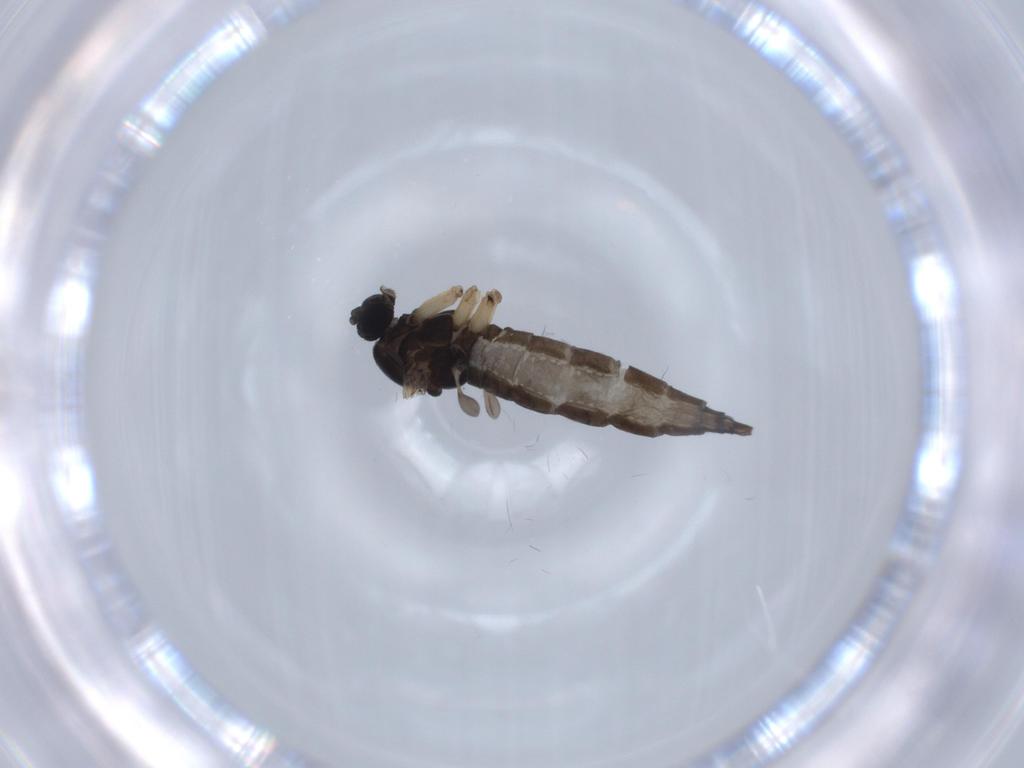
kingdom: Animalia
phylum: Arthropoda
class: Insecta
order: Diptera
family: Sciaridae
